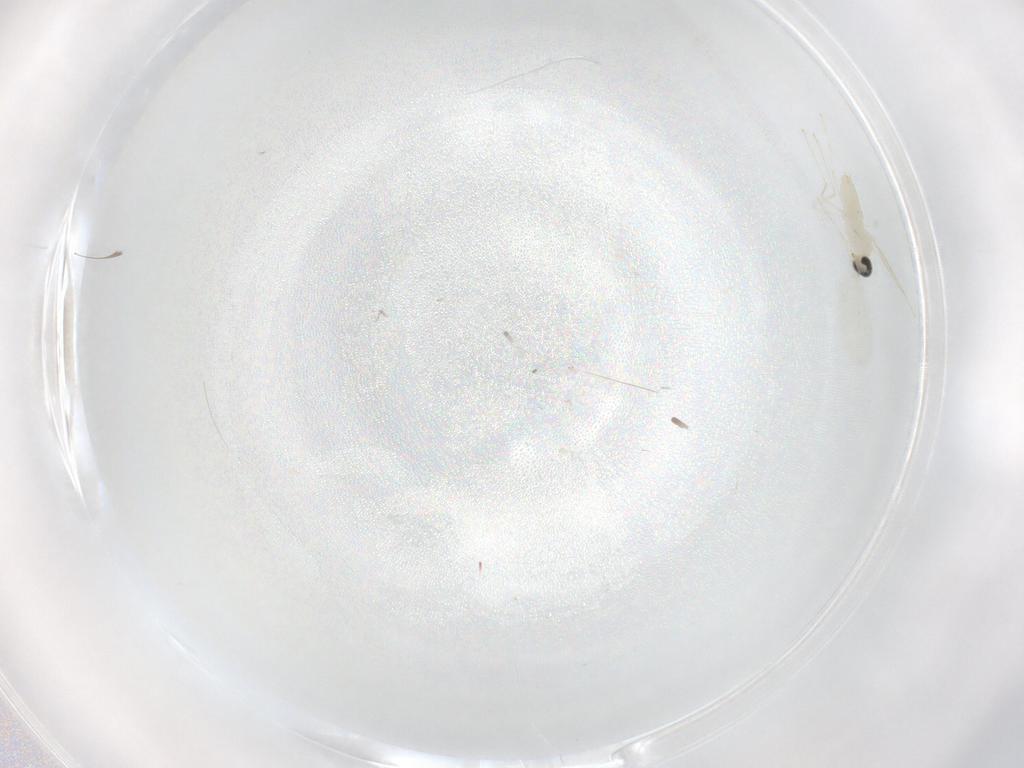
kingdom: Animalia
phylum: Arthropoda
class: Insecta
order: Diptera
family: Cecidomyiidae
